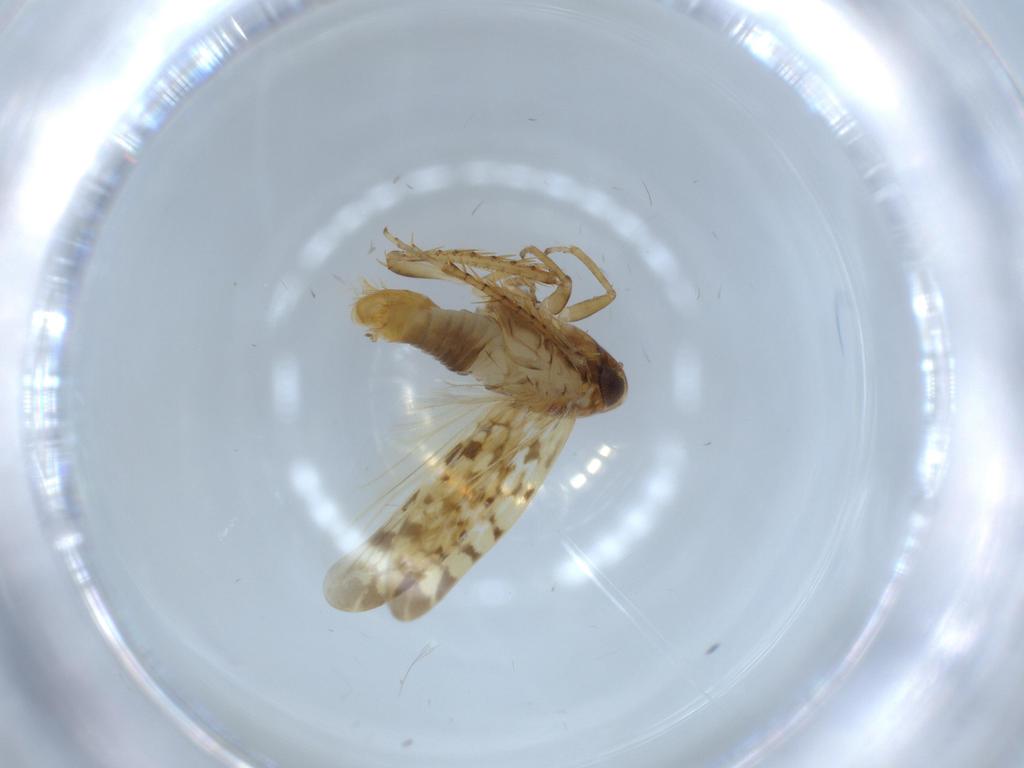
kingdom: Animalia
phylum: Arthropoda
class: Insecta
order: Hemiptera
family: Cicadellidae
